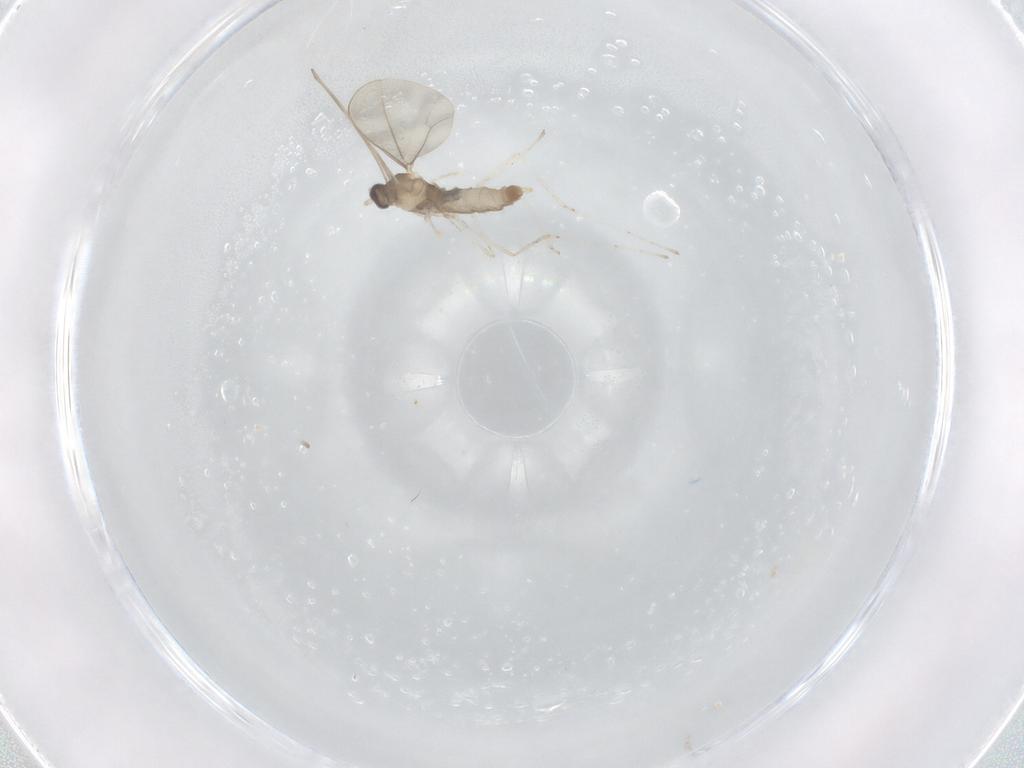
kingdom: Animalia
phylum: Arthropoda
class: Insecta
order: Diptera
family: Cecidomyiidae
